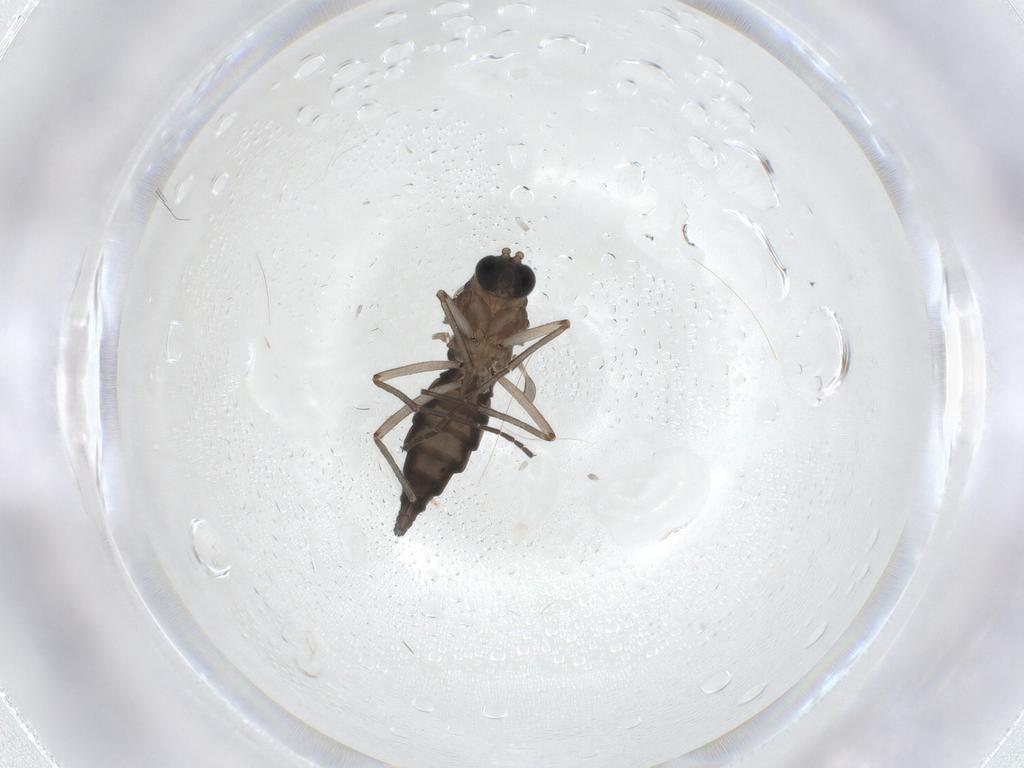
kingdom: Animalia
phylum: Arthropoda
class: Insecta
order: Diptera
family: Sciaridae
